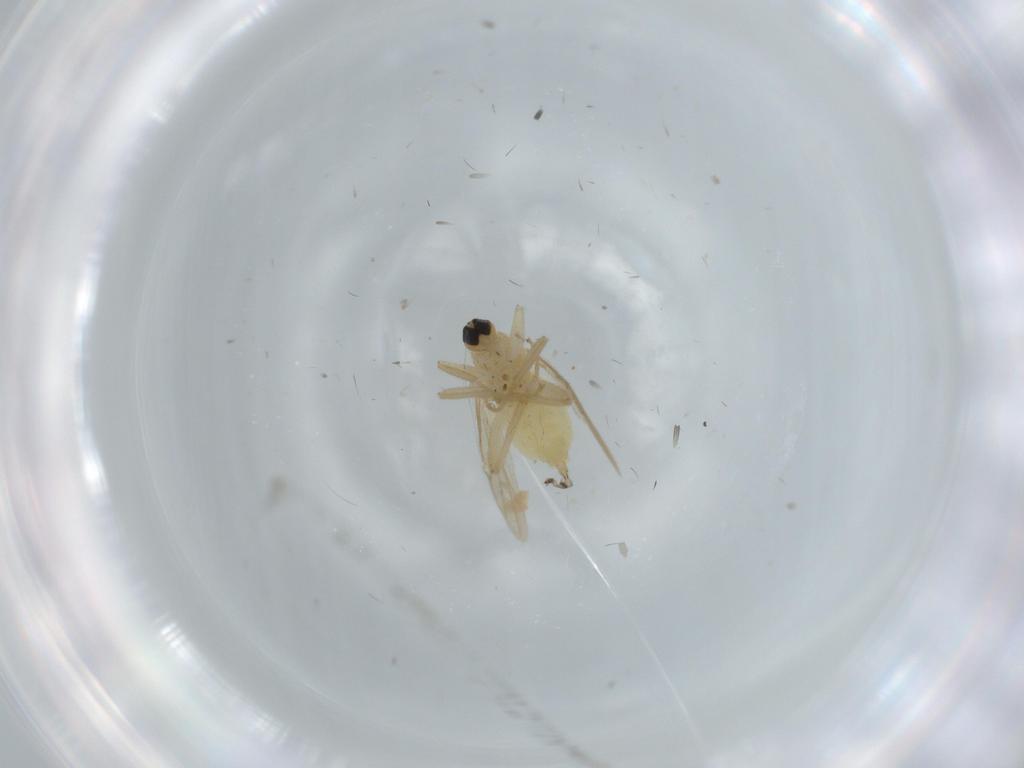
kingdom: Animalia
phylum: Arthropoda
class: Insecta
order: Diptera
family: Hybotidae
